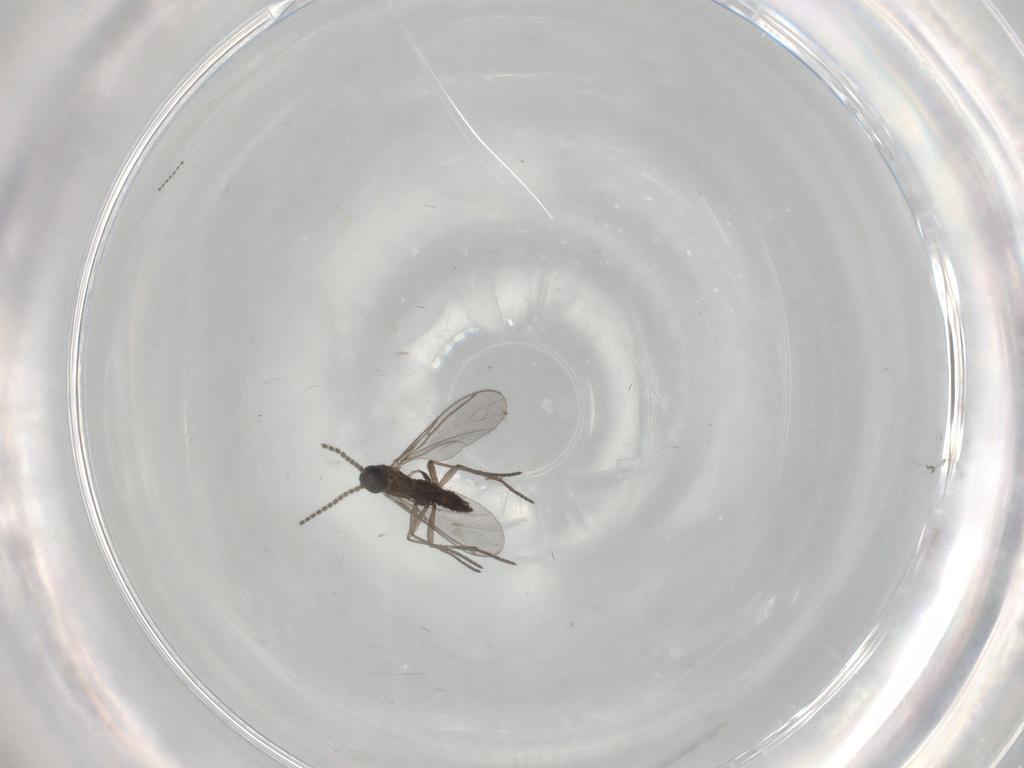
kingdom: Animalia
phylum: Arthropoda
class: Insecta
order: Diptera
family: Cecidomyiidae
